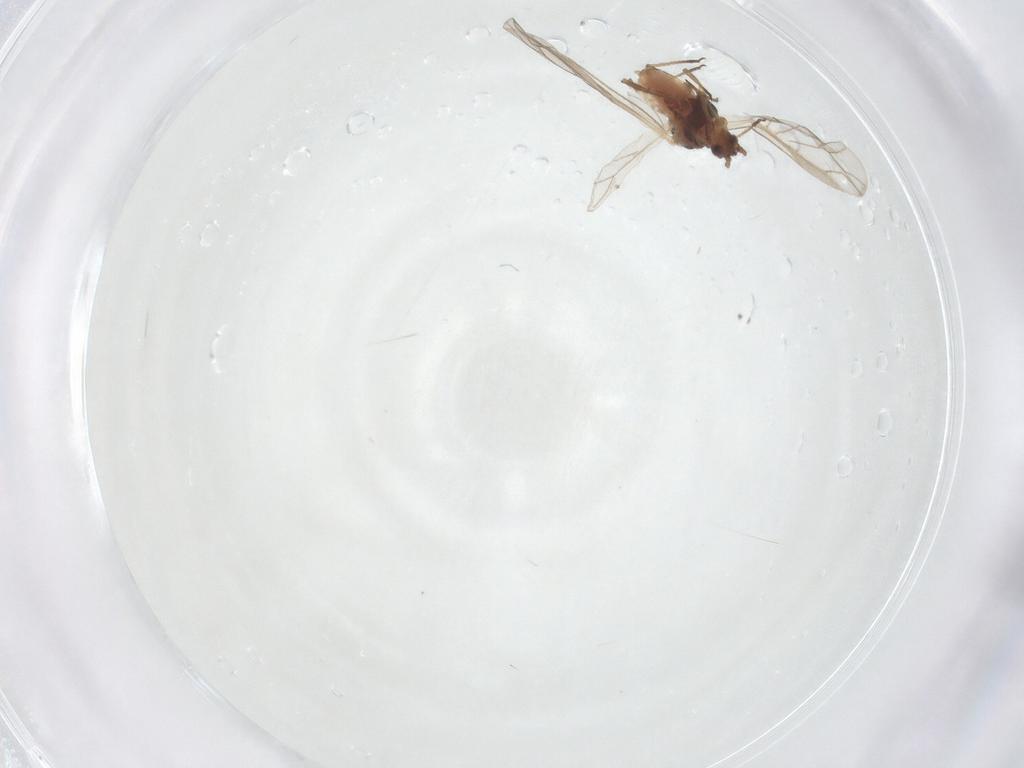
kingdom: Animalia
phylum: Arthropoda
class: Insecta
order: Hemiptera
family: Aphididae
